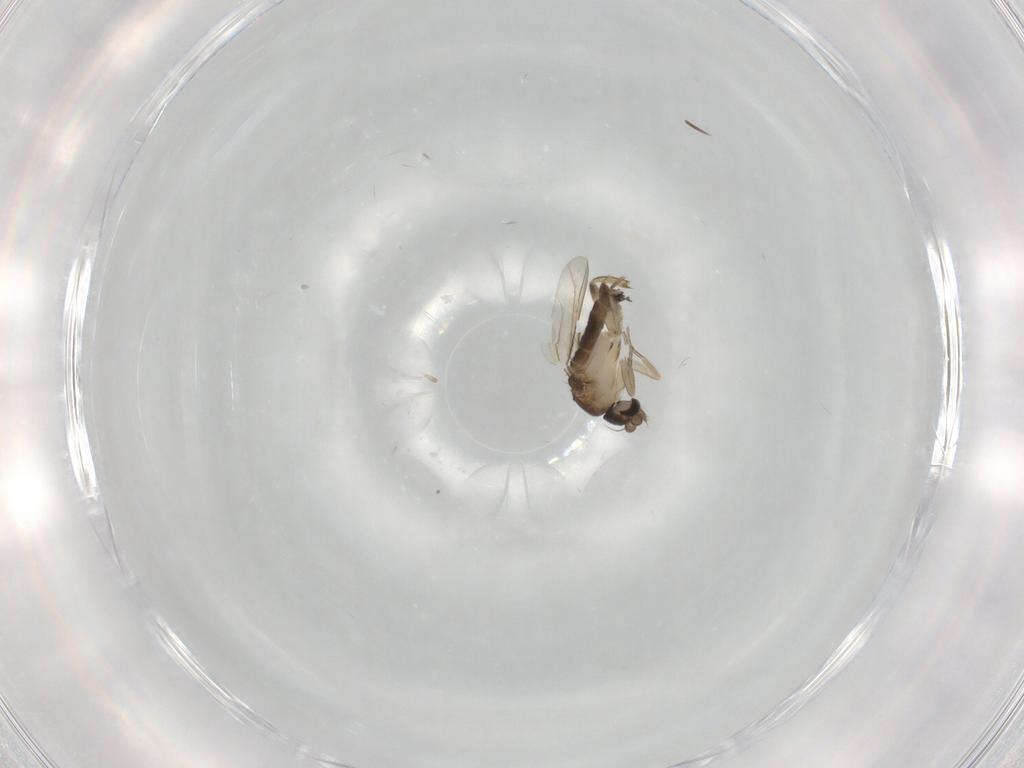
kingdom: Animalia
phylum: Arthropoda
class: Insecta
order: Diptera
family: Phoridae
